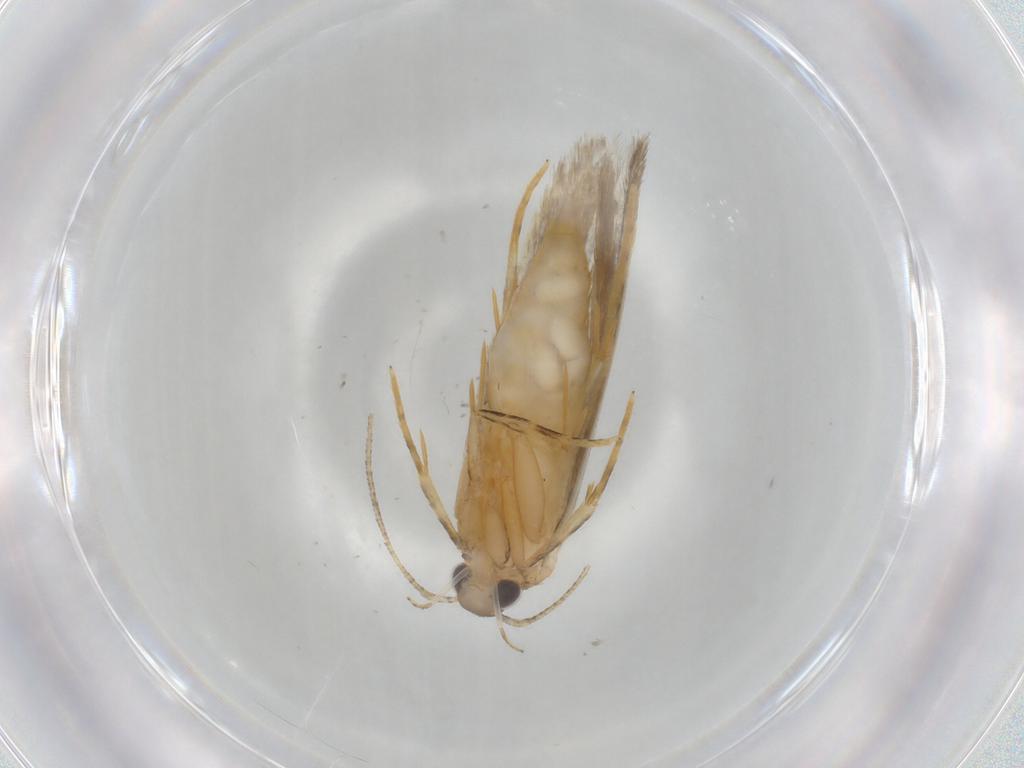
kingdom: Animalia
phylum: Arthropoda
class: Insecta
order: Lepidoptera
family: Autostichidae
